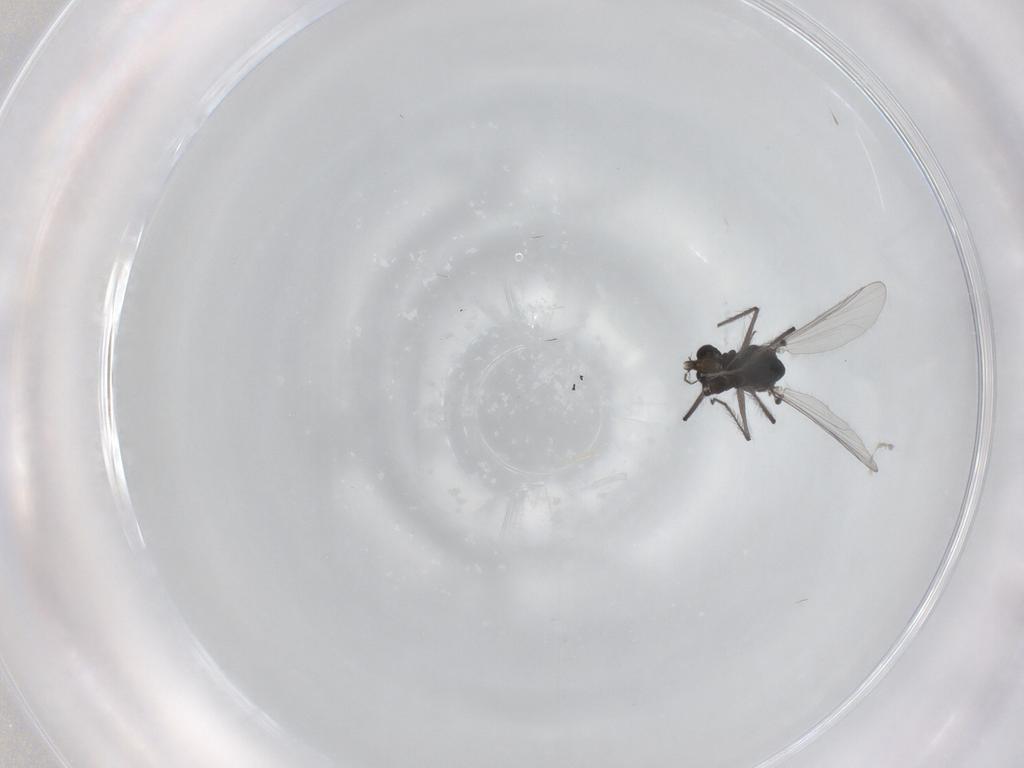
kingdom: Animalia
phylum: Arthropoda
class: Insecta
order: Diptera
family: Chironomidae
